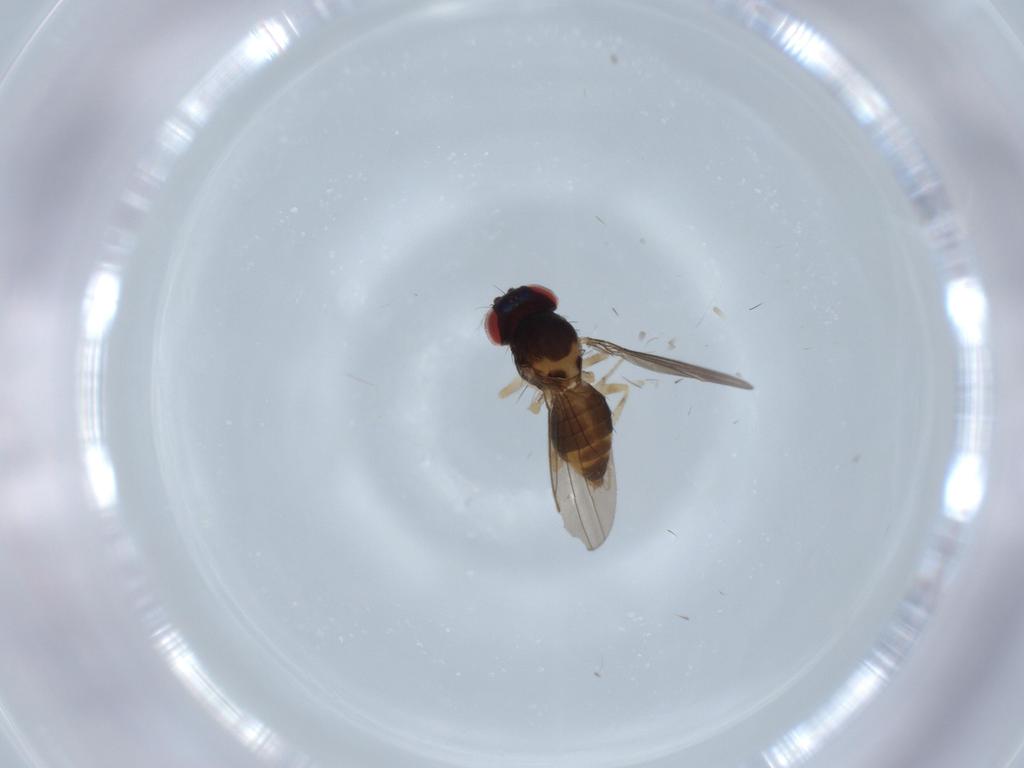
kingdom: Animalia
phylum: Arthropoda
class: Insecta
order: Diptera
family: Drosophilidae
